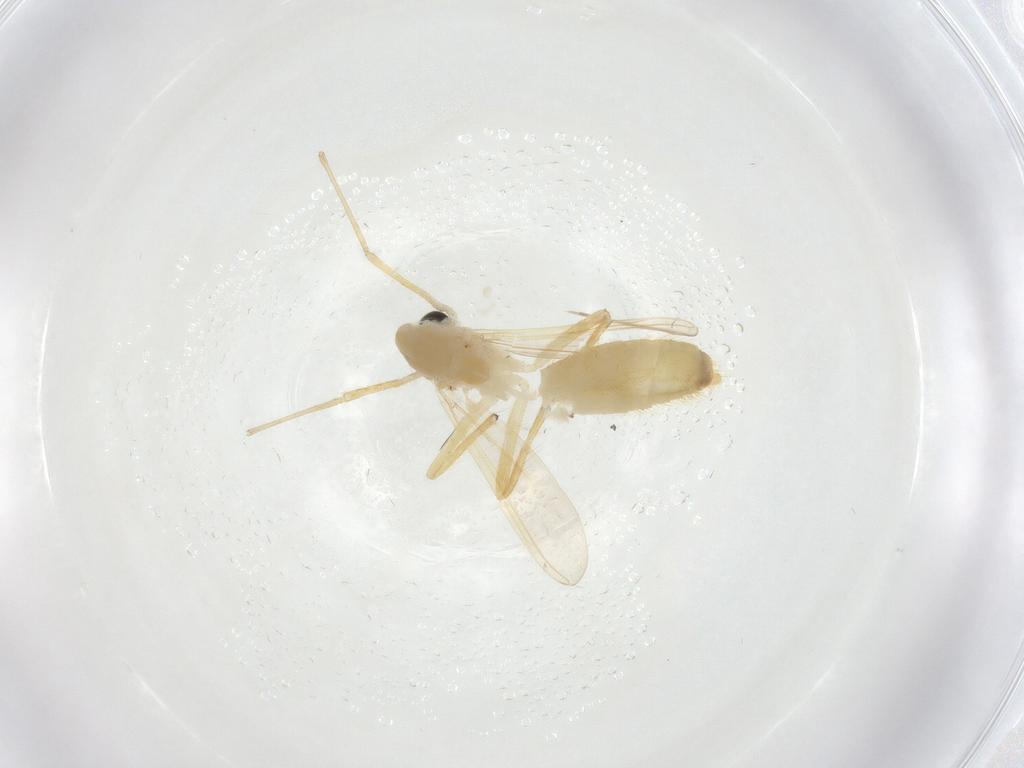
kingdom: Animalia
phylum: Arthropoda
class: Insecta
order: Diptera
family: Chironomidae
